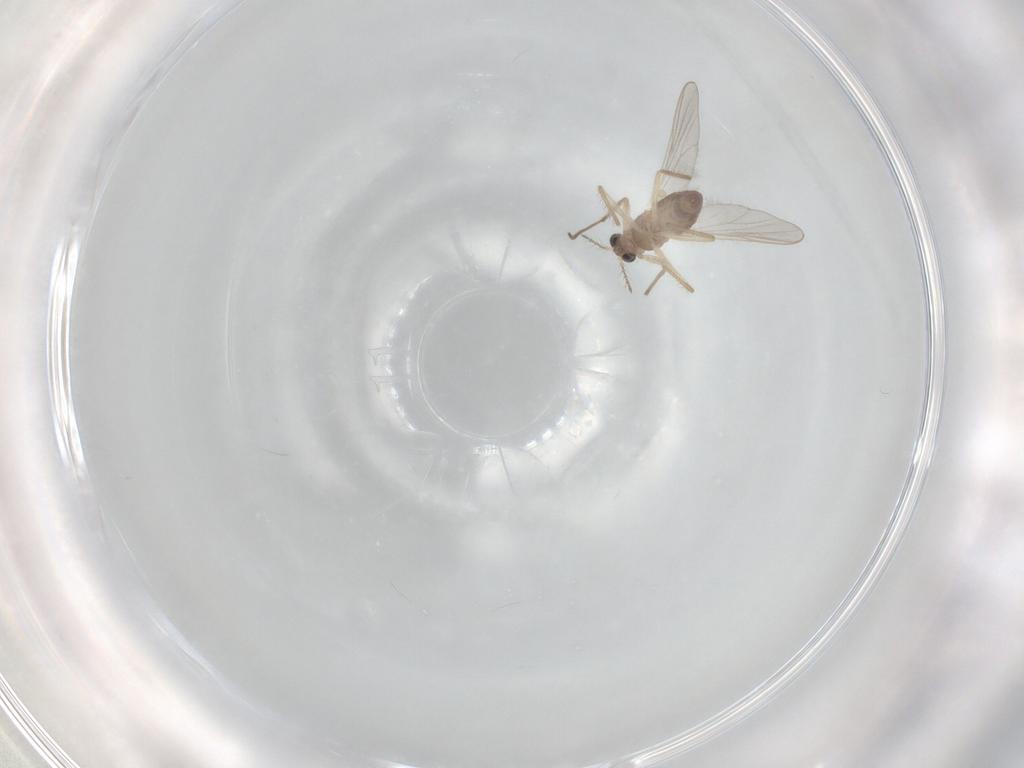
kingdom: Animalia
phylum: Arthropoda
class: Insecta
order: Diptera
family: Chironomidae
